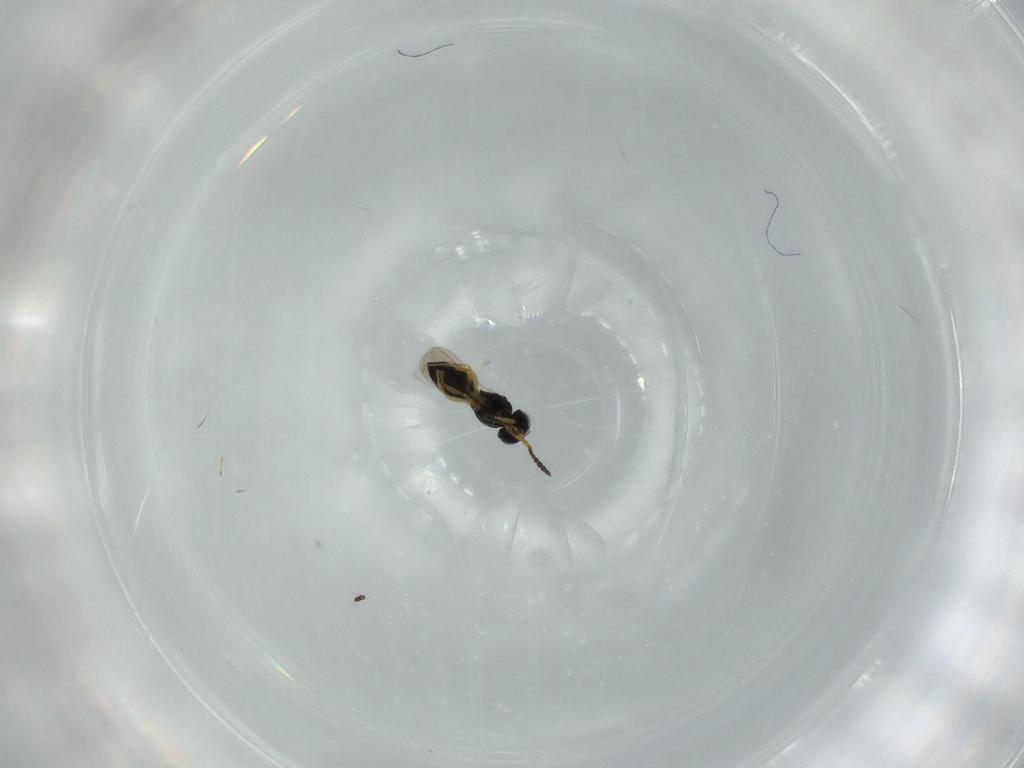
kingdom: Animalia
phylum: Arthropoda
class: Insecta
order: Hymenoptera
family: Scelionidae
